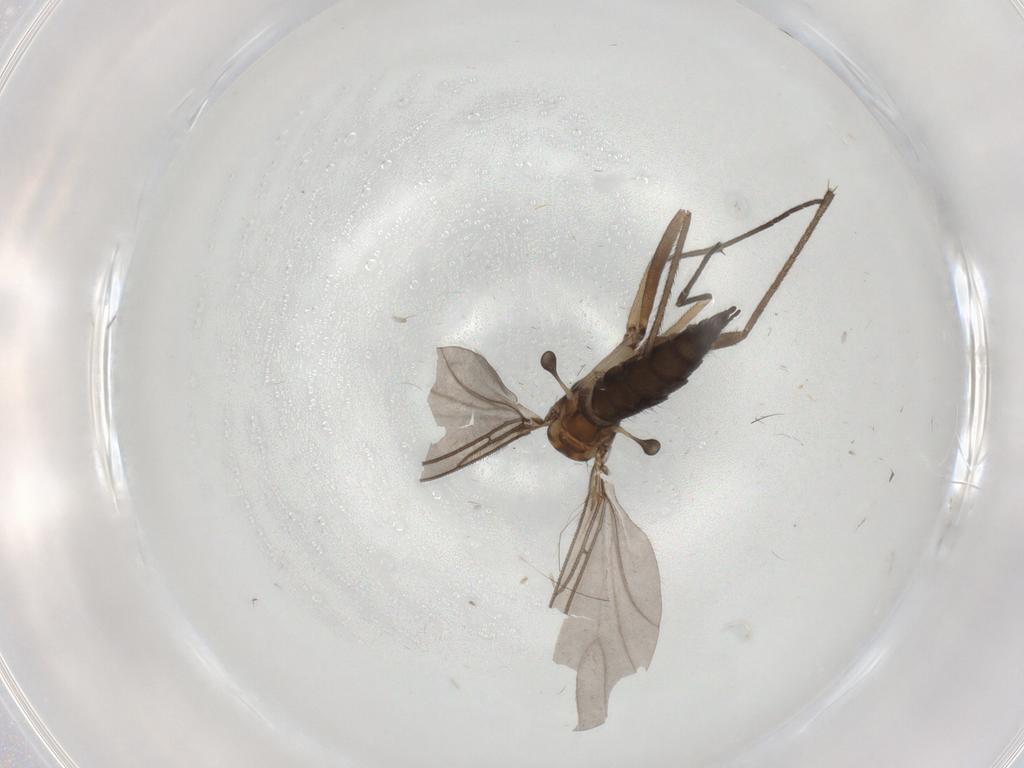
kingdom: Animalia
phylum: Arthropoda
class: Insecta
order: Diptera
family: Sciaridae
